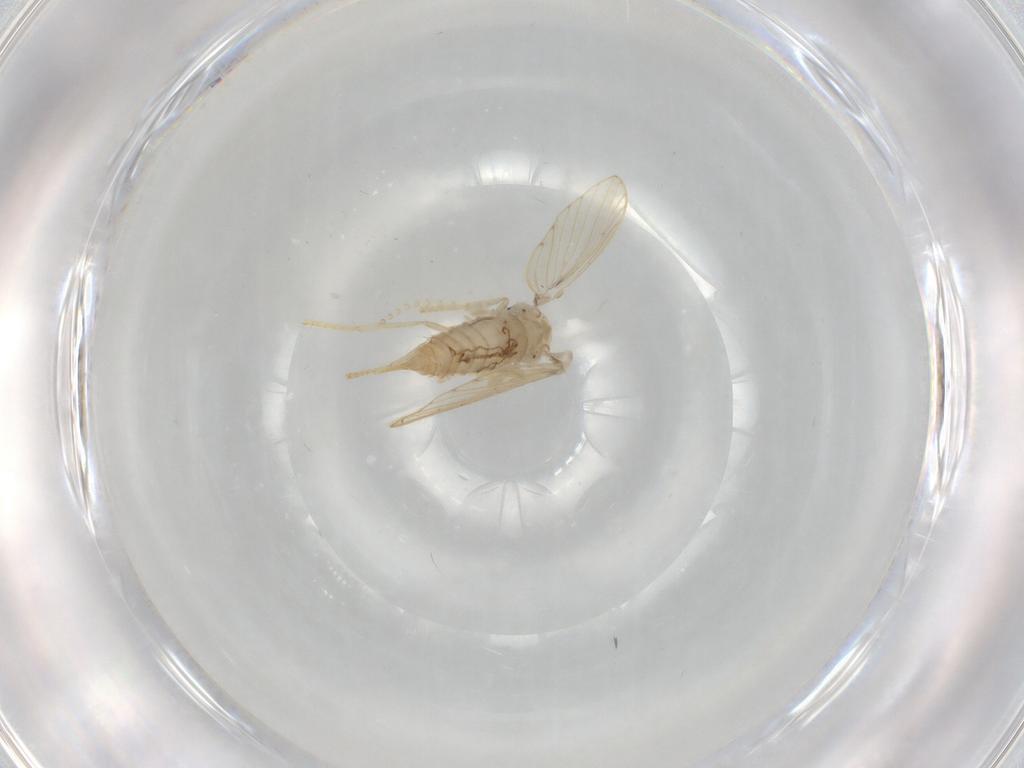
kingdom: Animalia
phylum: Arthropoda
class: Insecta
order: Diptera
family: Psychodidae
